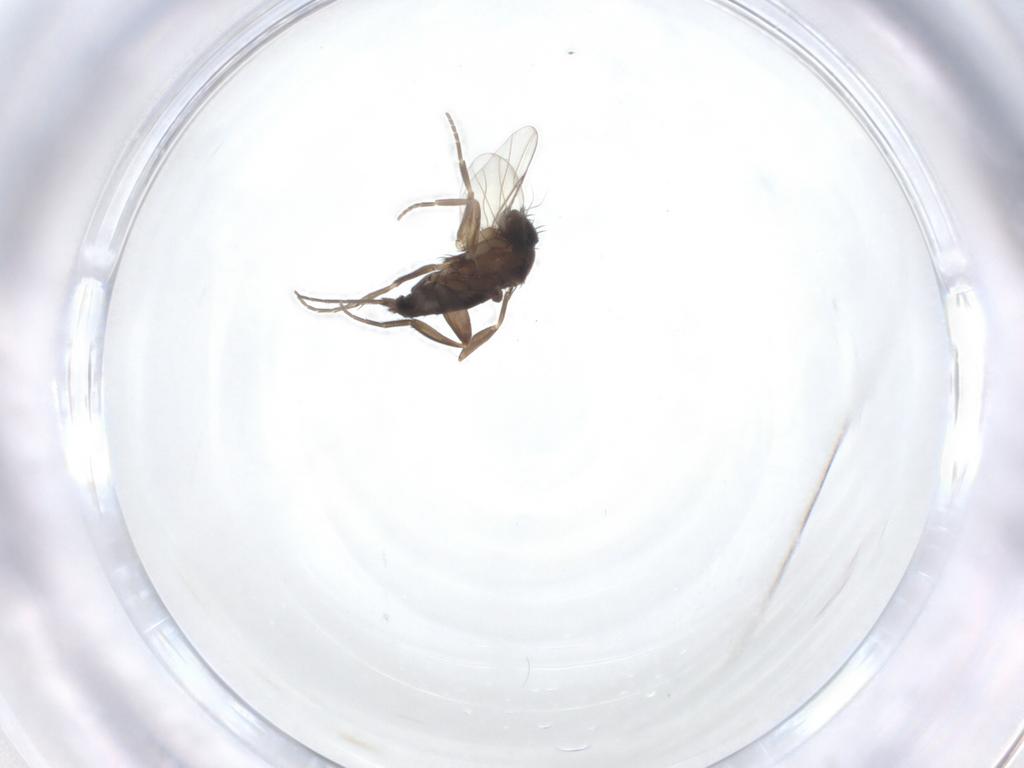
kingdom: Animalia
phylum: Arthropoda
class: Insecta
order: Diptera
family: Phoridae
